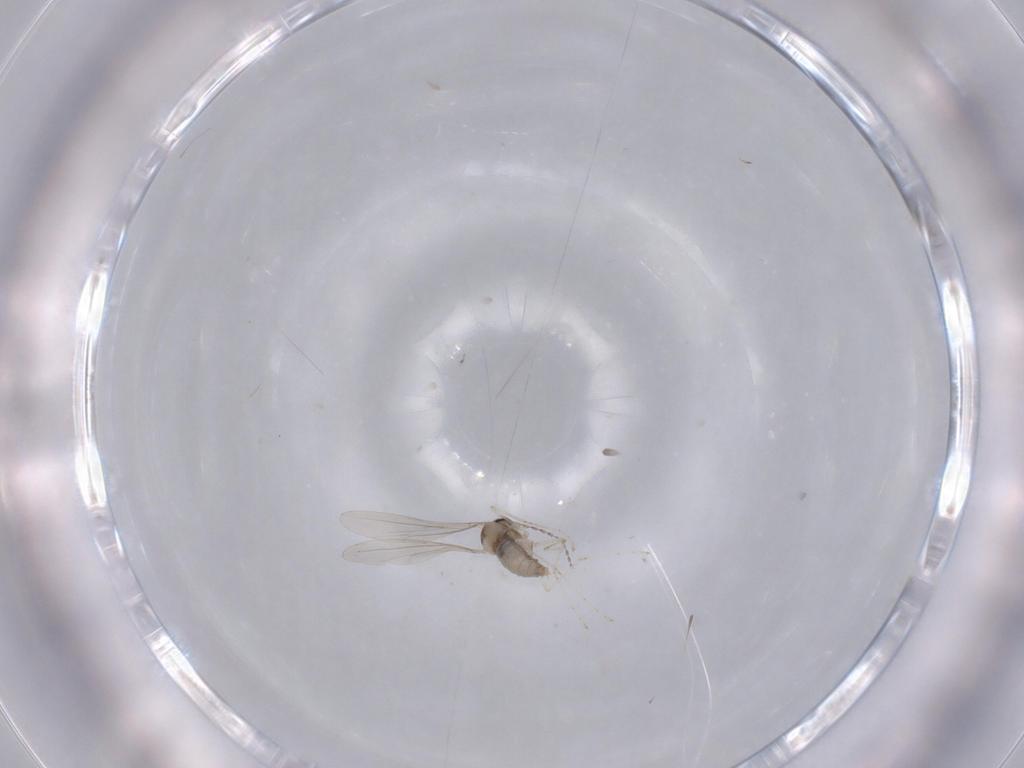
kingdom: Animalia
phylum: Arthropoda
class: Insecta
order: Diptera
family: Cecidomyiidae
